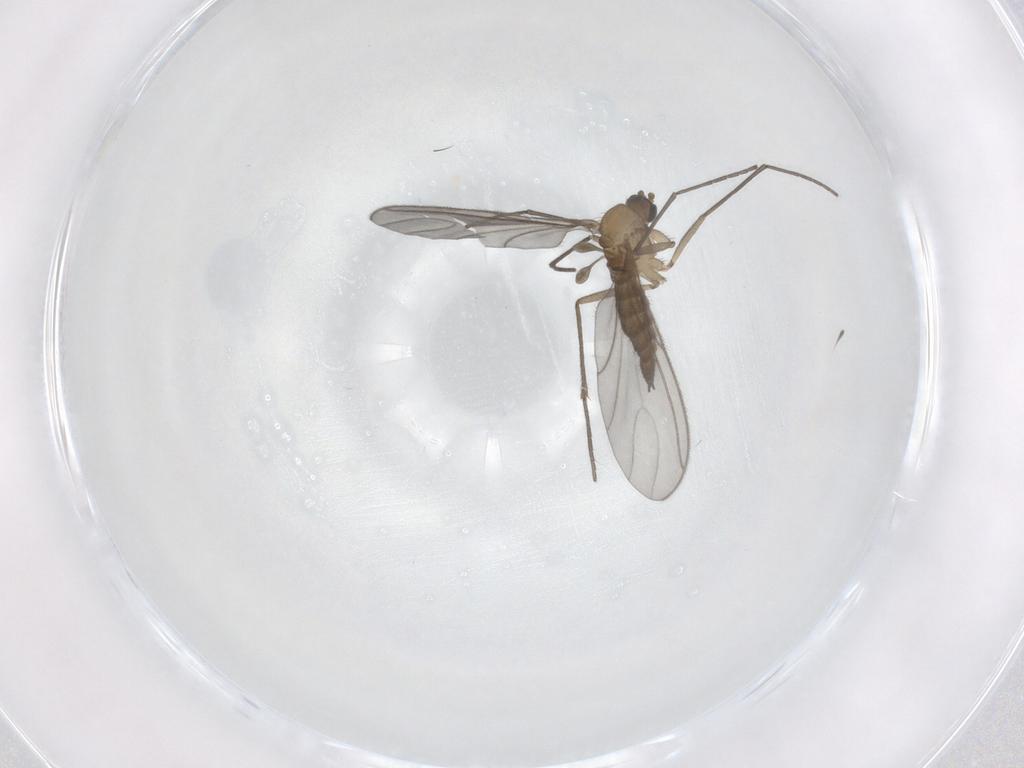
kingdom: Animalia
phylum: Arthropoda
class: Insecta
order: Diptera
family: Sciaridae
